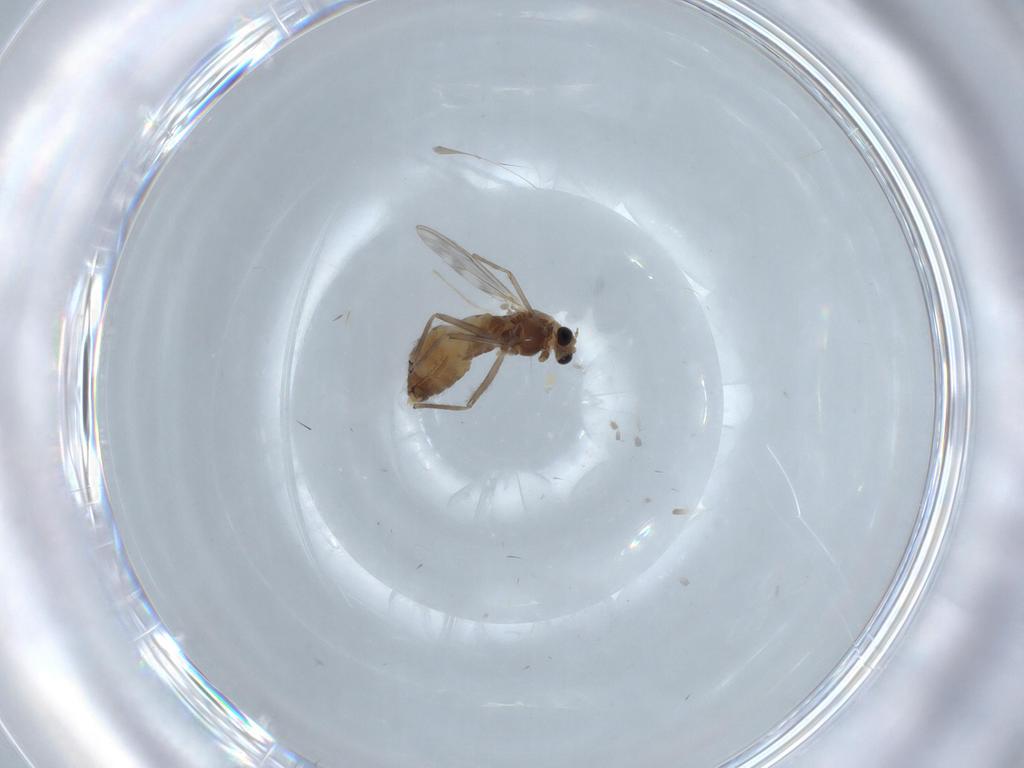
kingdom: Animalia
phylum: Arthropoda
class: Insecta
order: Diptera
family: Chironomidae
